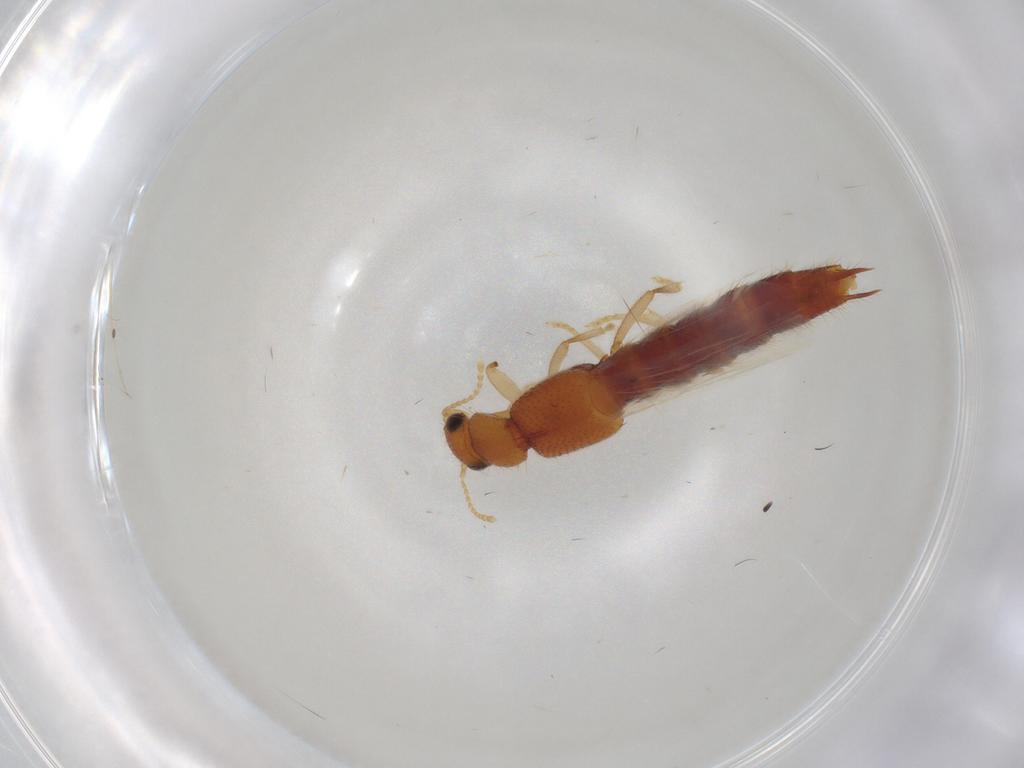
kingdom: Animalia
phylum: Arthropoda
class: Insecta
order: Coleoptera
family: Staphylinidae
